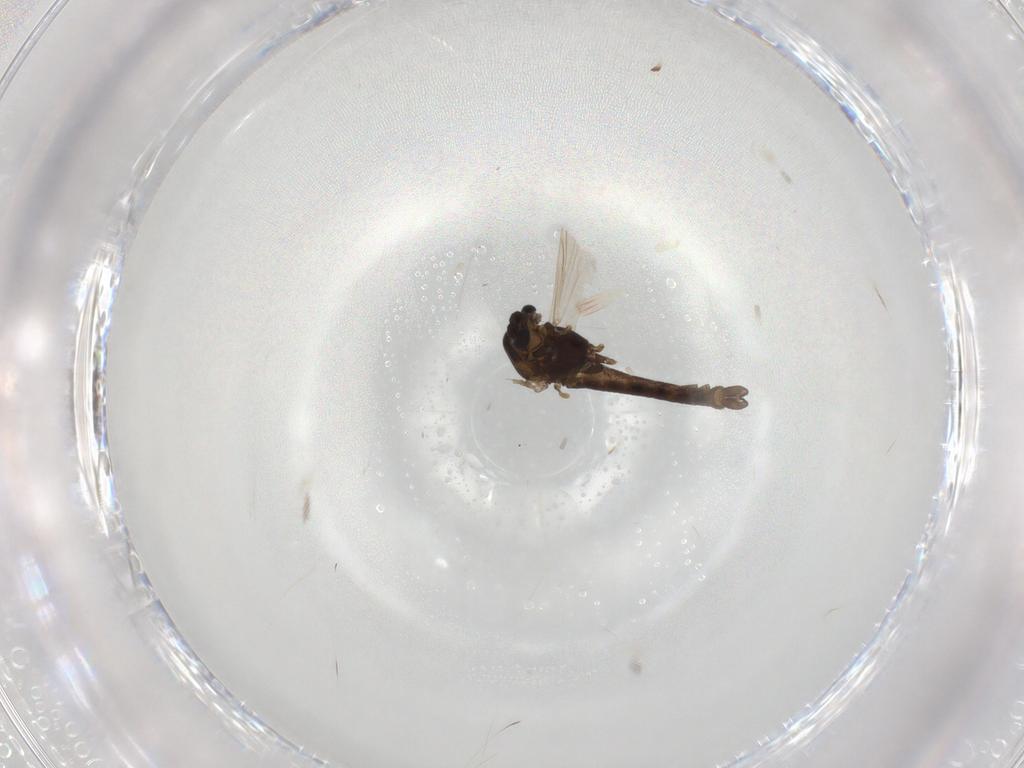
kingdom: Animalia
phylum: Arthropoda
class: Insecta
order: Diptera
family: Chironomidae
